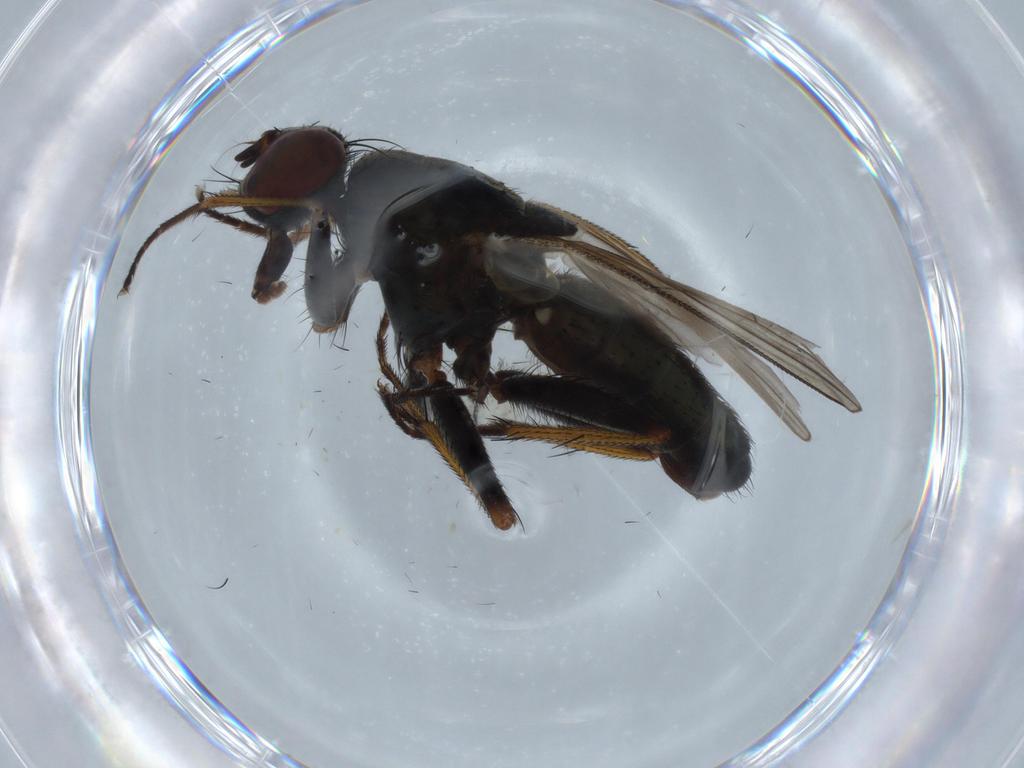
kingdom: Animalia
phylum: Arthropoda
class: Insecta
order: Diptera
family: Muscidae
